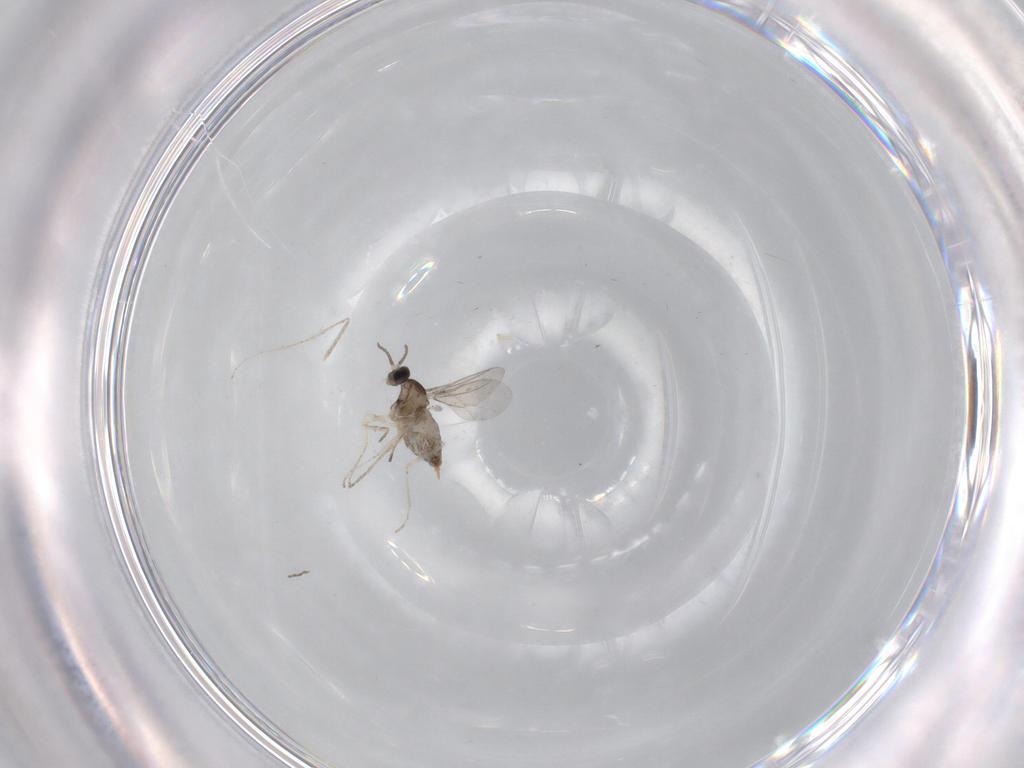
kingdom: Animalia
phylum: Arthropoda
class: Insecta
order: Diptera
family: Cecidomyiidae
